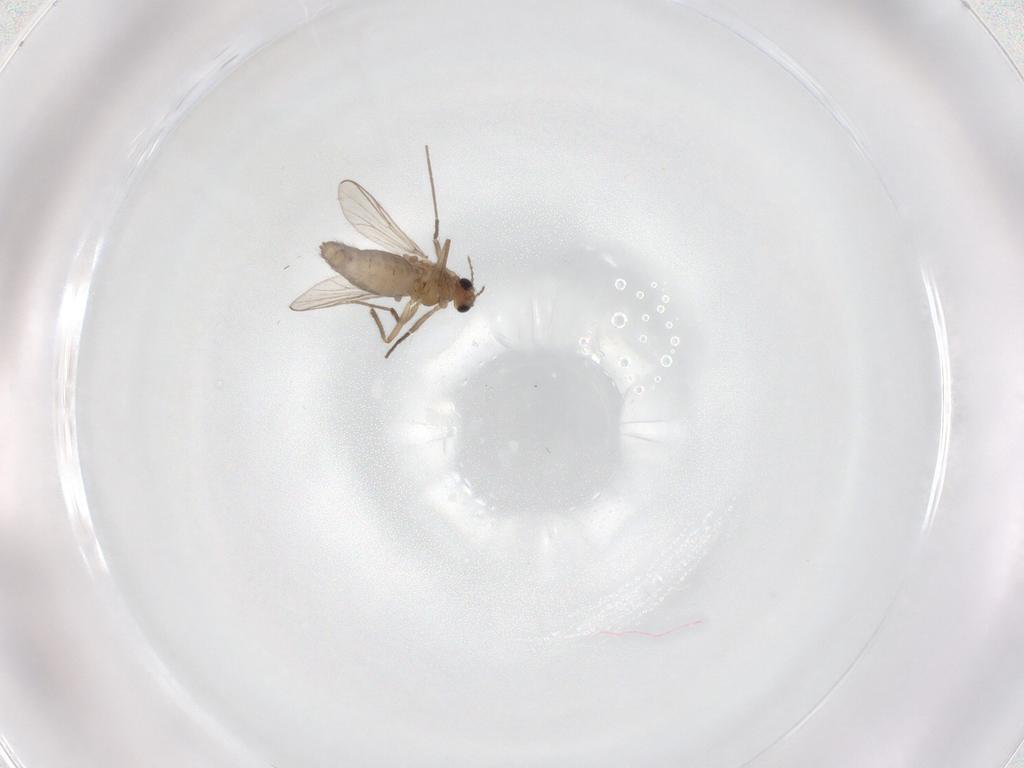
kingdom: Animalia
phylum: Arthropoda
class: Insecta
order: Diptera
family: Chironomidae
